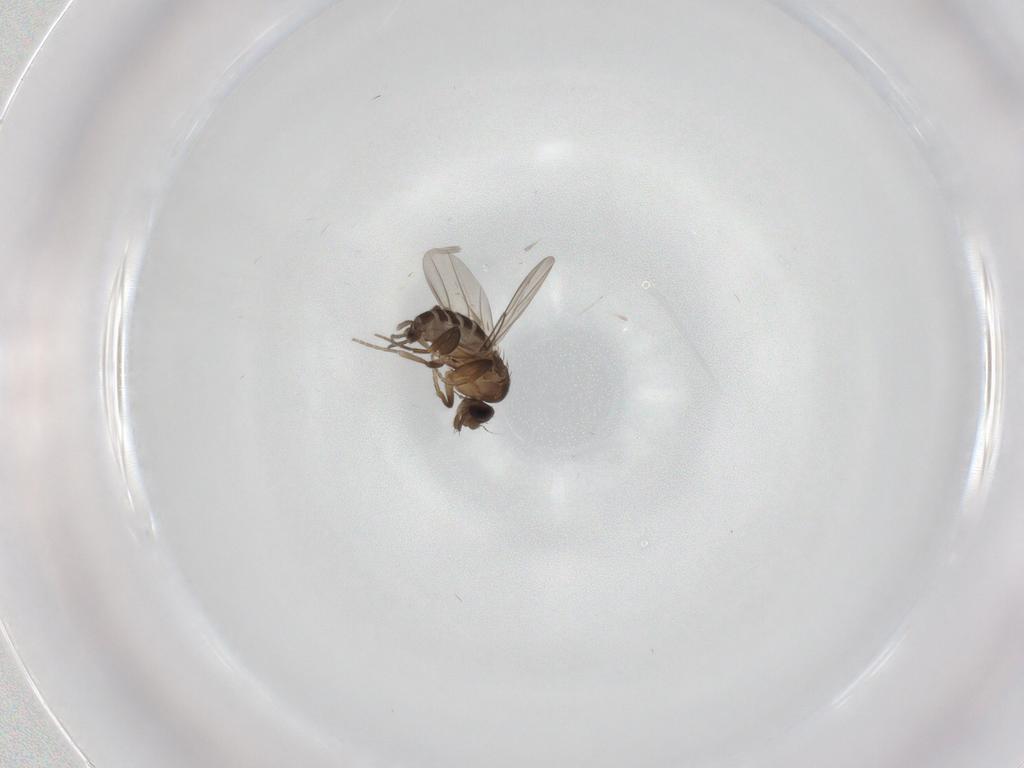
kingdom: Animalia
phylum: Arthropoda
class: Insecta
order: Diptera
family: Phoridae
